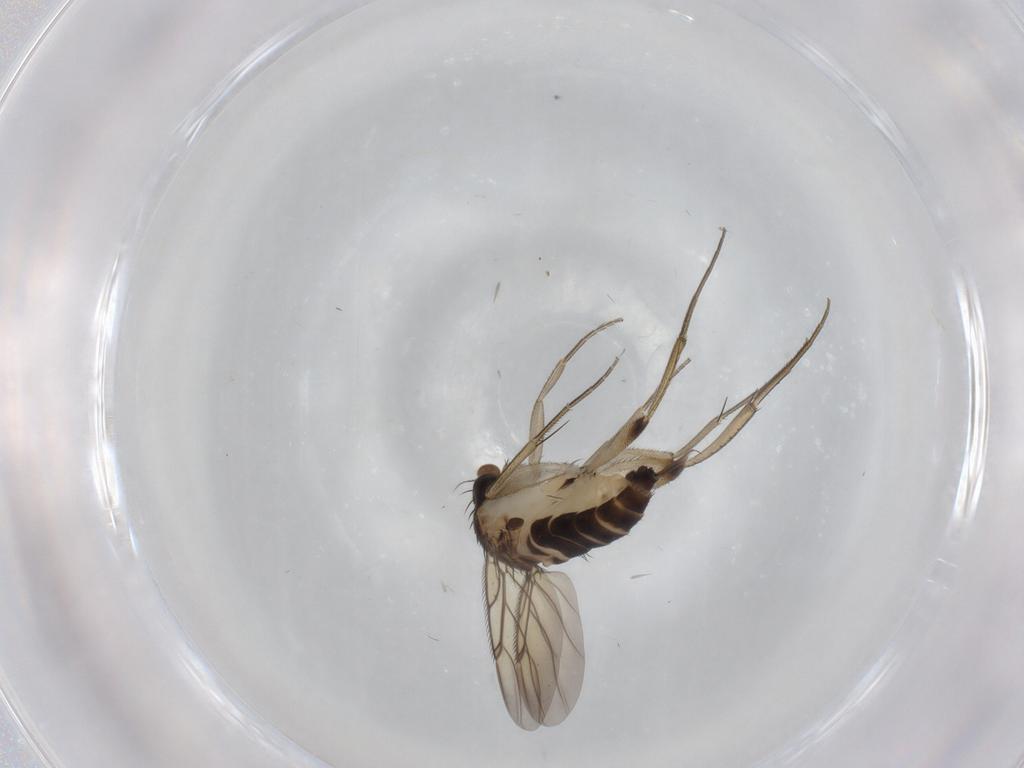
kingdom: Animalia
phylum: Arthropoda
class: Insecta
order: Diptera
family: Phoridae
